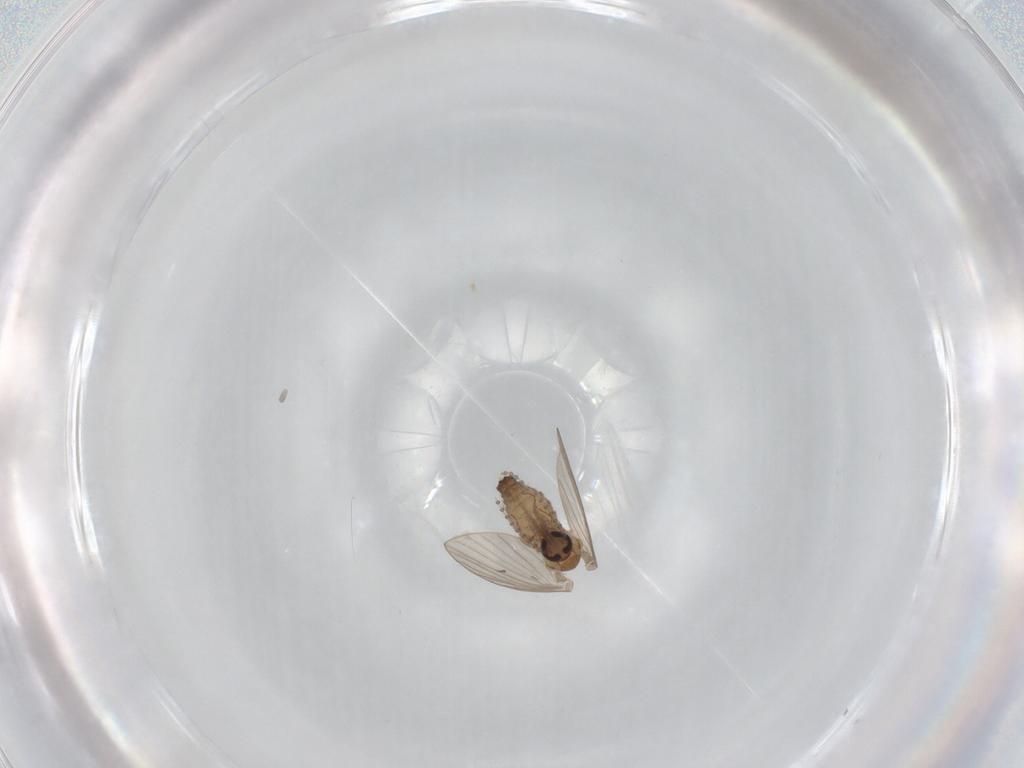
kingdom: Animalia
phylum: Arthropoda
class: Insecta
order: Diptera
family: Psychodidae
